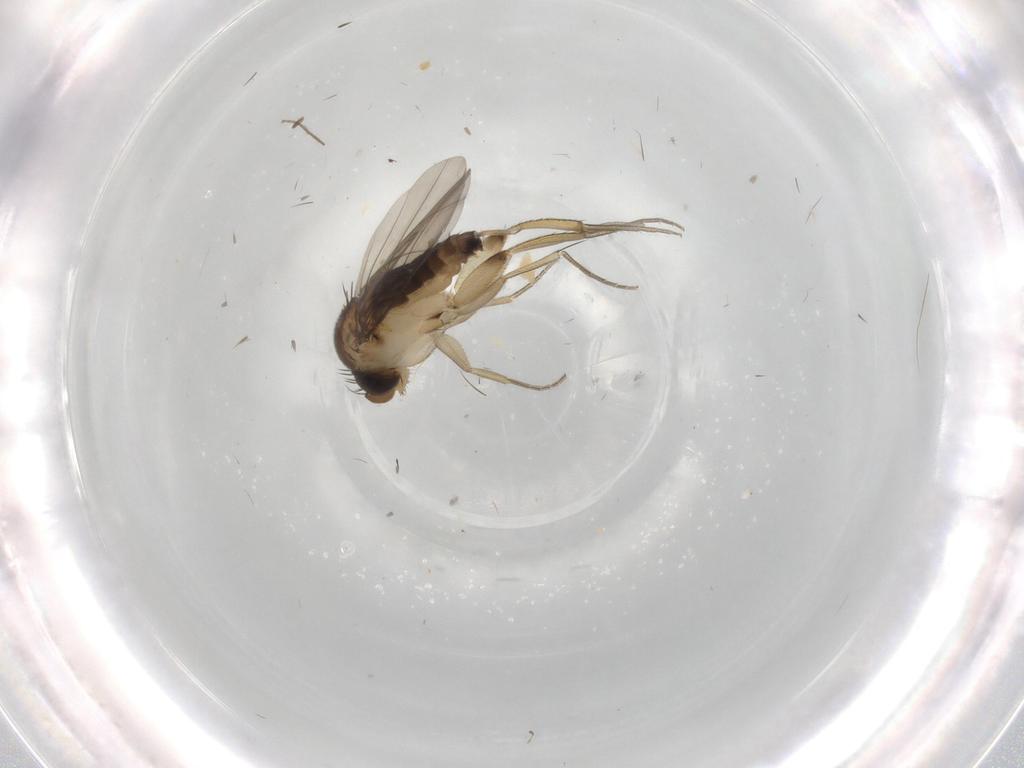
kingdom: Animalia
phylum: Arthropoda
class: Insecta
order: Diptera
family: Phoridae
